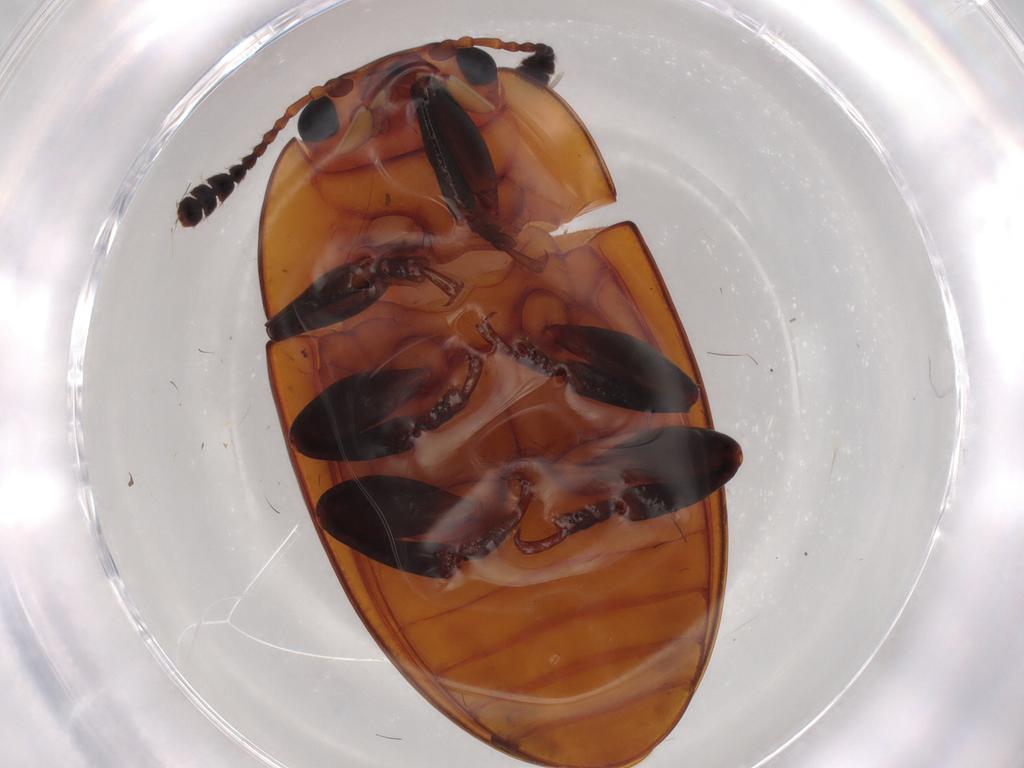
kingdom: Animalia
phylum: Arthropoda
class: Insecta
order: Coleoptera
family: Erotylidae
